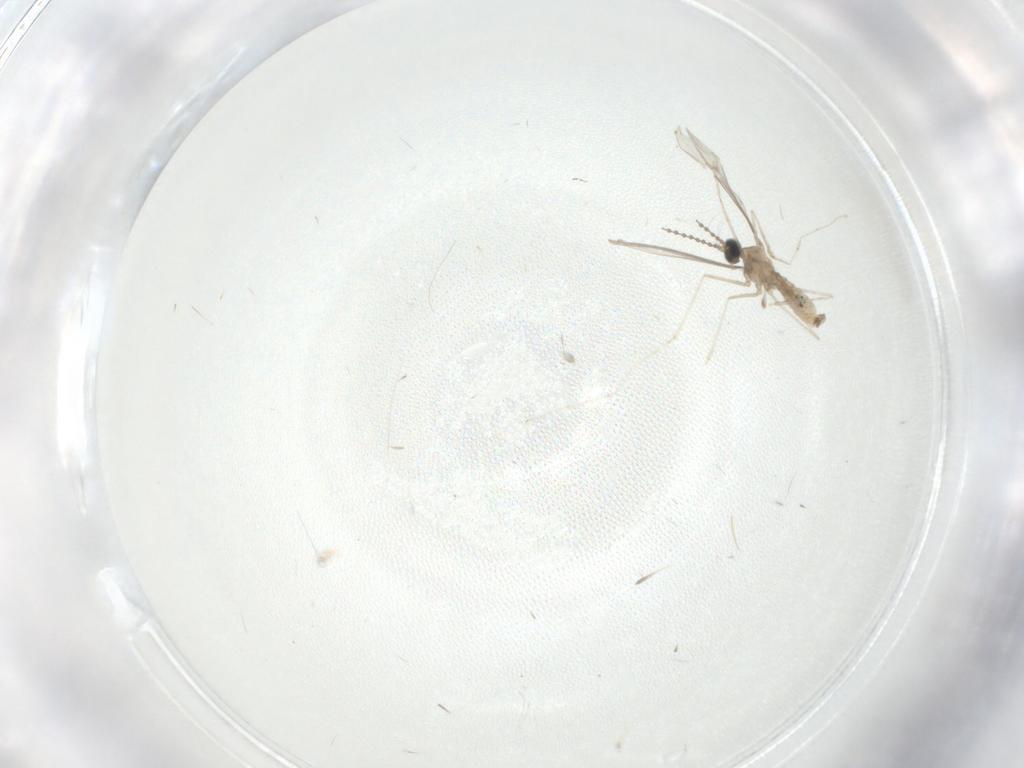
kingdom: Animalia
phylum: Arthropoda
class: Insecta
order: Diptera
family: Cecidomyiidae
